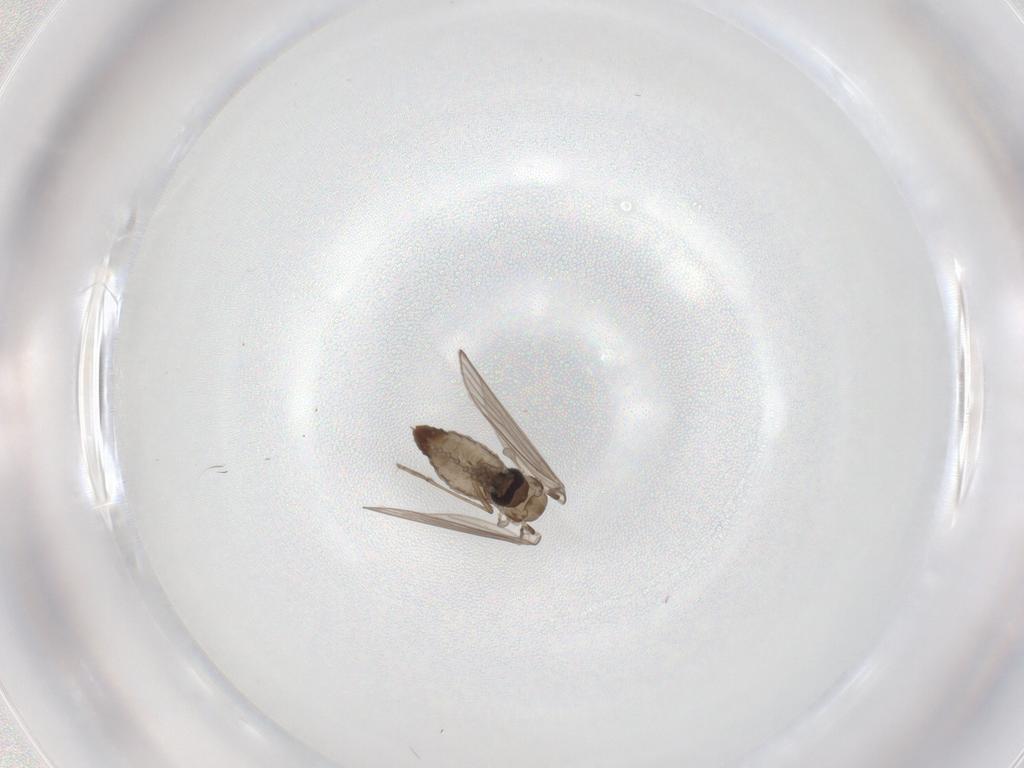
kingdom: Animalia
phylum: Arthropoda
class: Insecta
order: Diptera
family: Psychodidae
